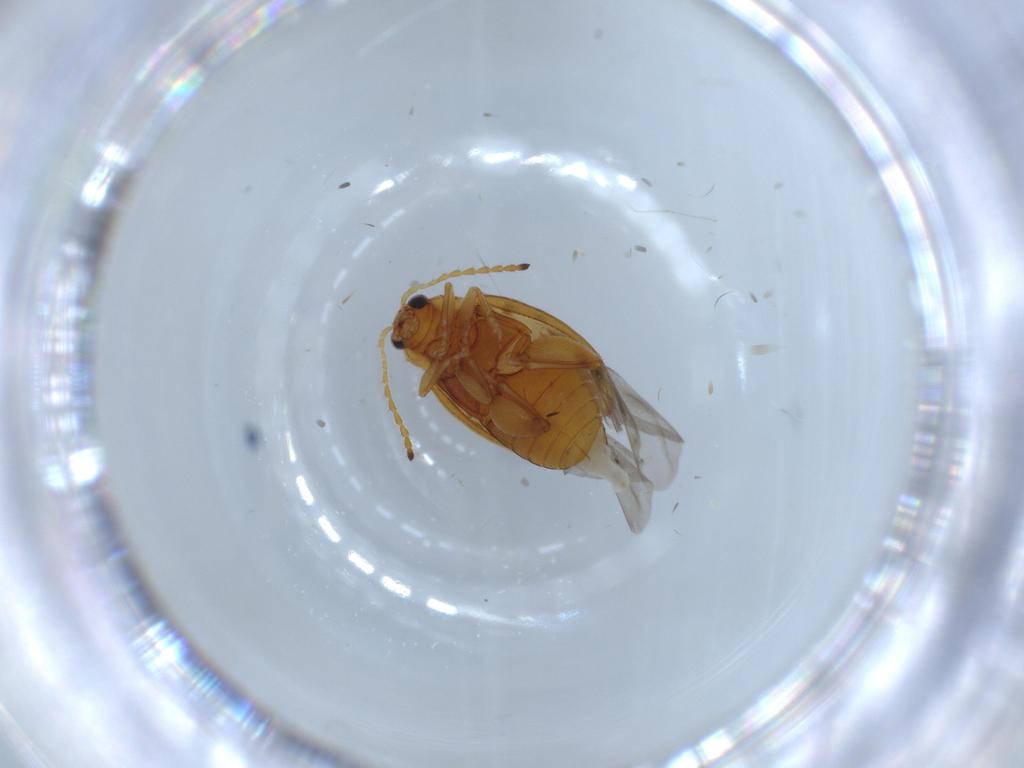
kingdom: Animalia
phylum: Arthropoda
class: Insecta
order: Coleoptera
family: Chrysomelidae
